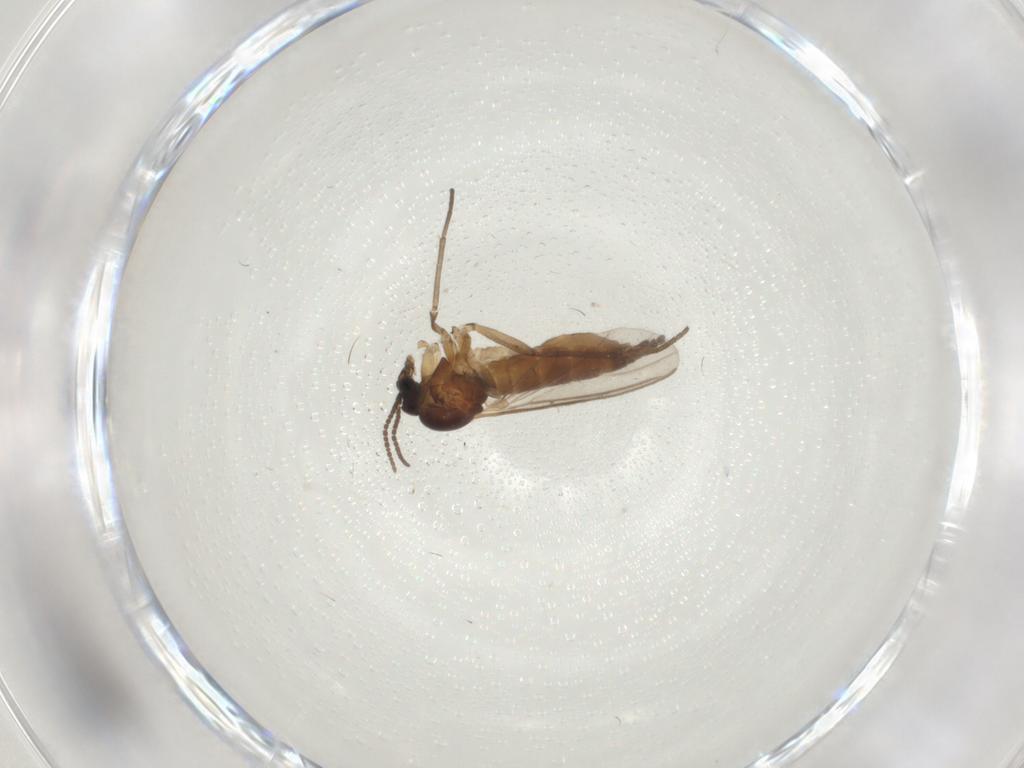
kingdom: Animalia
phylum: Arthropoda
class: Insecta
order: Diptera
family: Sciaridae
